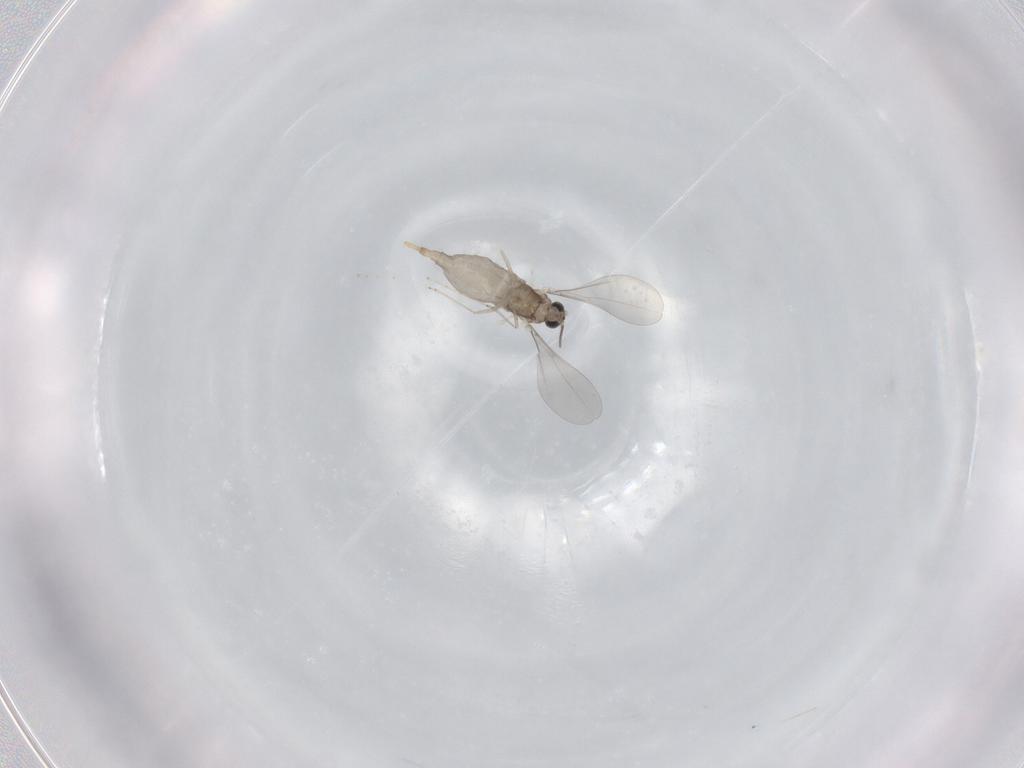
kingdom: Animalia
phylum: Arthropoda
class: Insecta
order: Diptera
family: Cecidomyiidae
